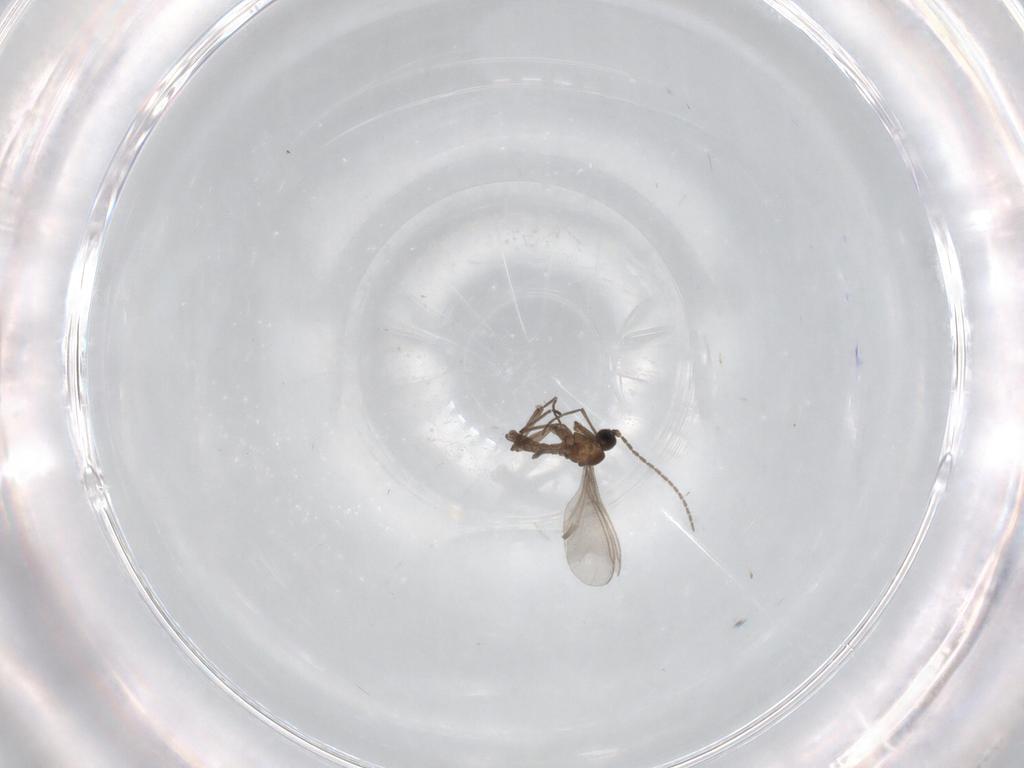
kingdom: Animalia
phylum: Arthropoda
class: Insecta
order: Diptera
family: Sciaridae
